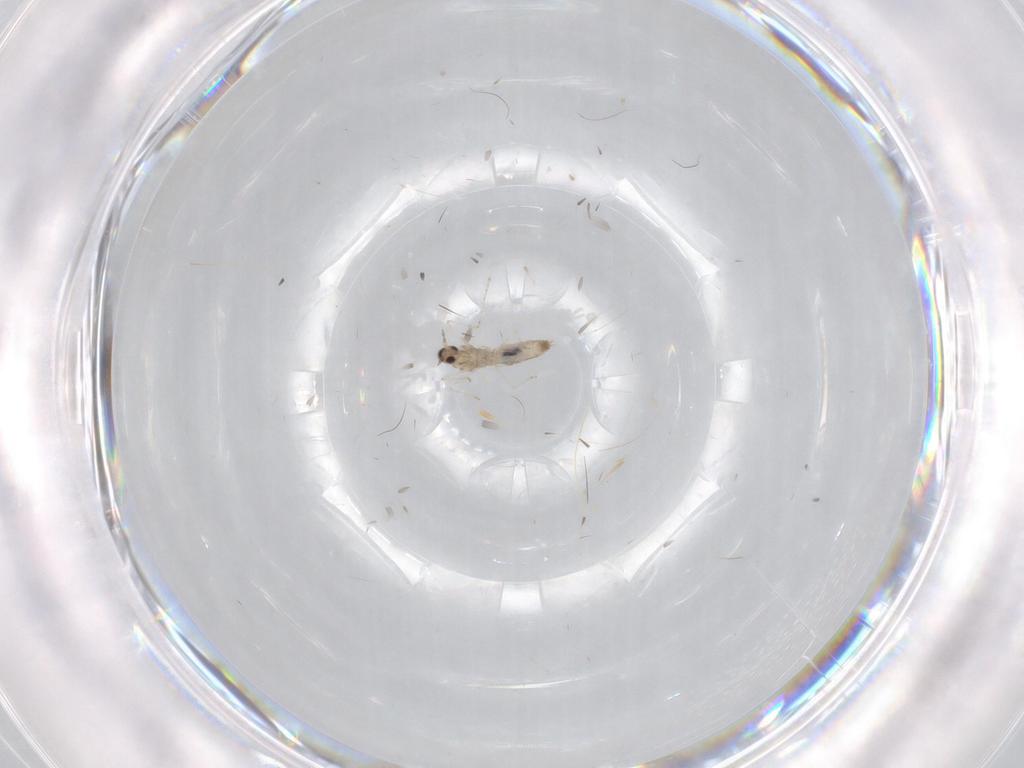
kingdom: Animalia
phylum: Arthropoda
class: Insecta
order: Diptera
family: Cecidomyiidae
